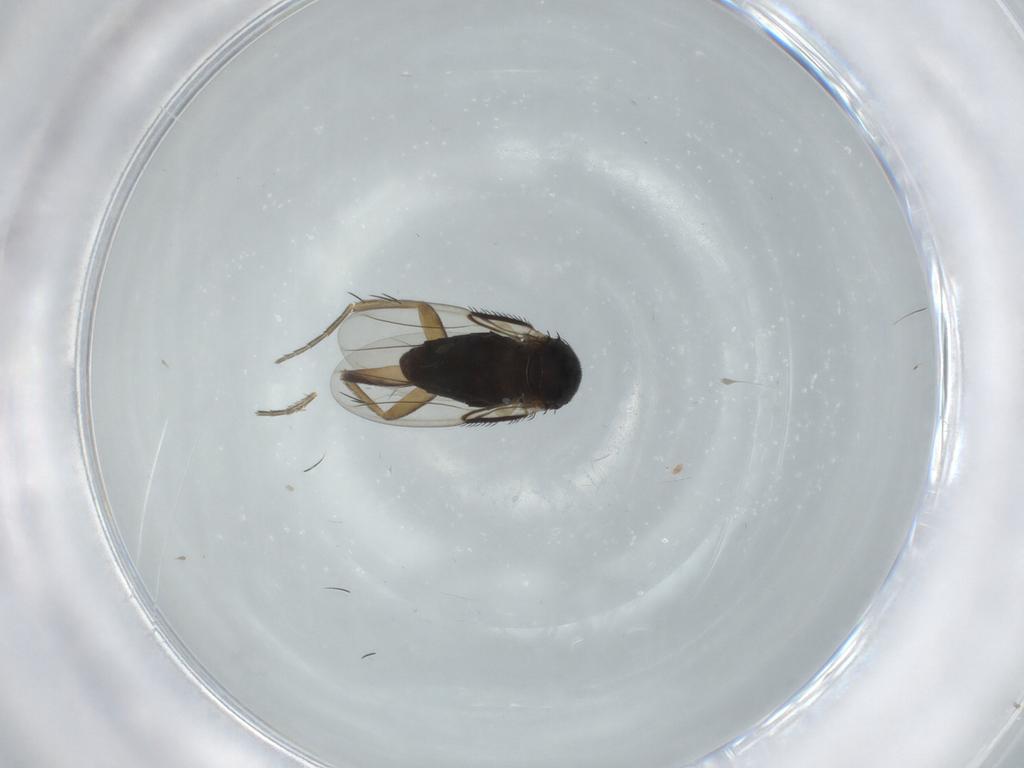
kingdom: Animalia
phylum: Arthropoda
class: Insecta
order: Diptera
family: Phoridae
